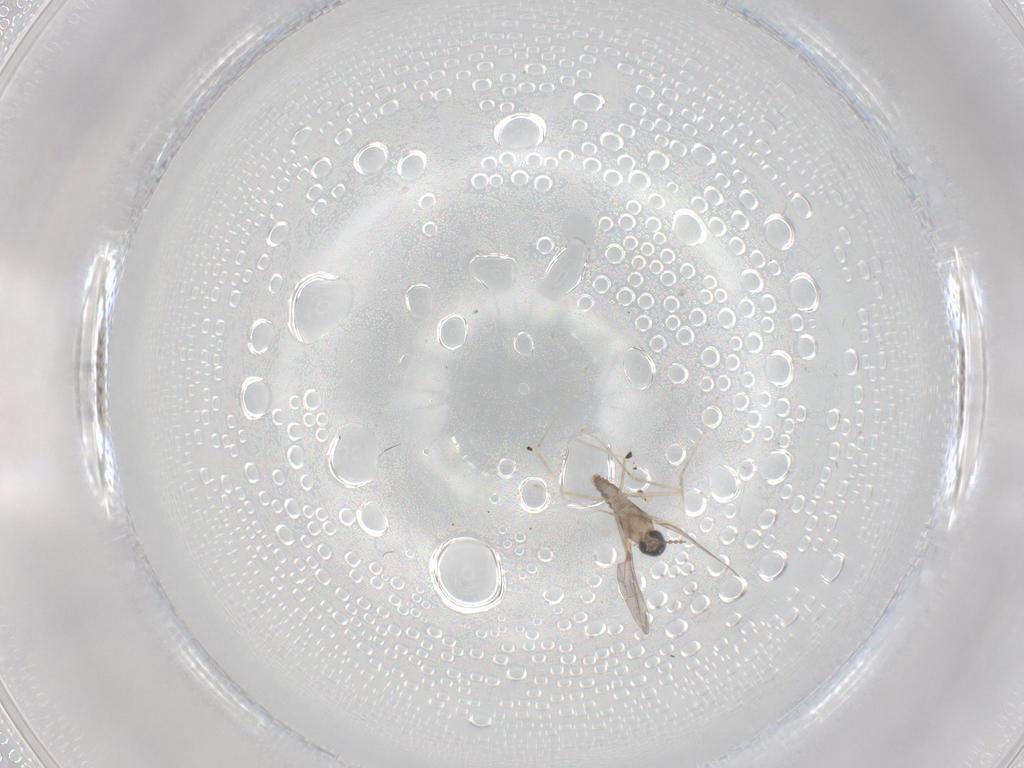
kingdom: Animalia
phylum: Arthropoda
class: Insecta
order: Diptera
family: Cecidomyiidae
